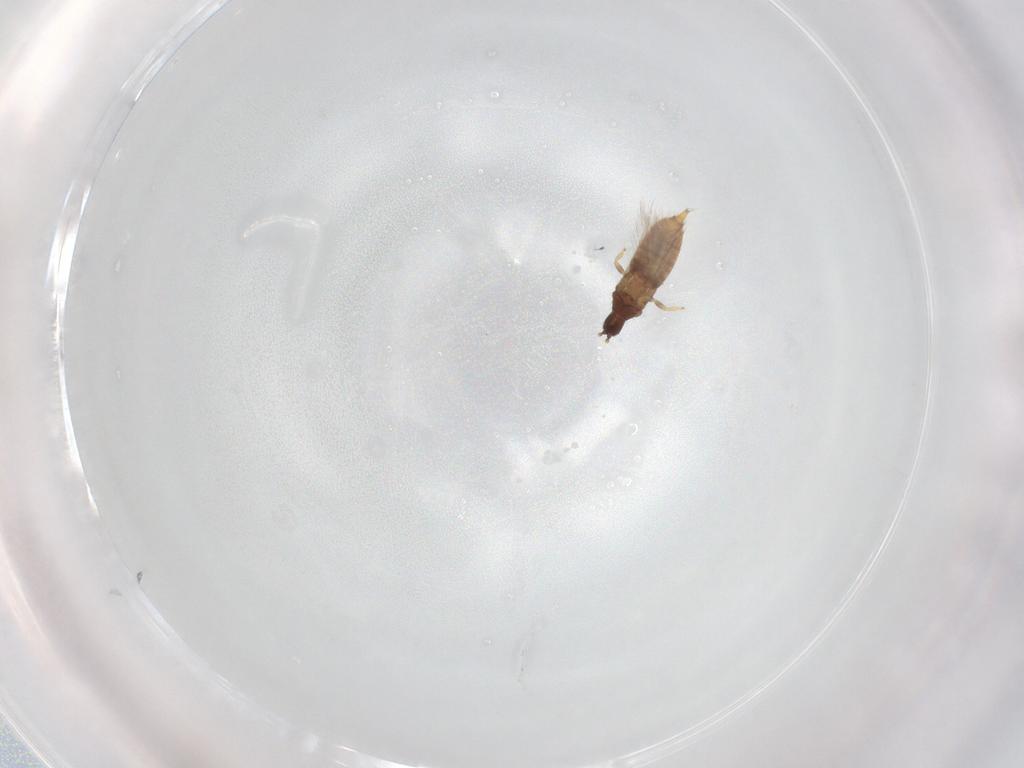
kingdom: Animalia
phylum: Arthropoda
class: Insecta
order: Thysanoptera
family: Phlaeothripidae
